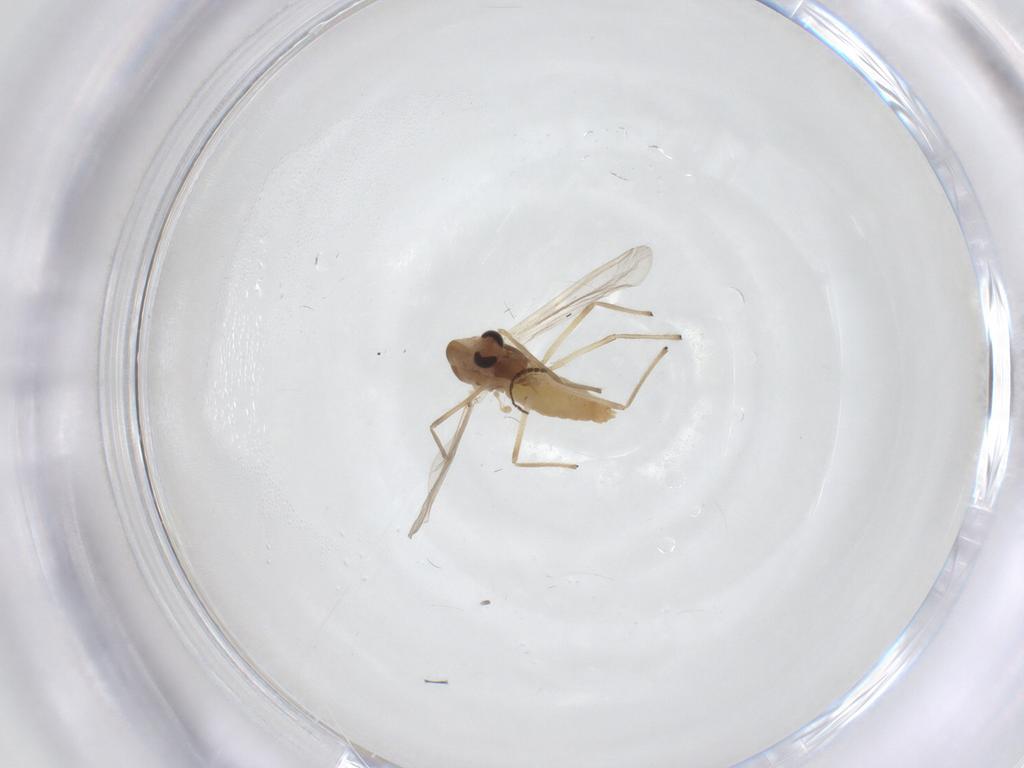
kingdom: Animalia
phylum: Arthropoda
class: Insecta
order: Diptera
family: Chironomidae
